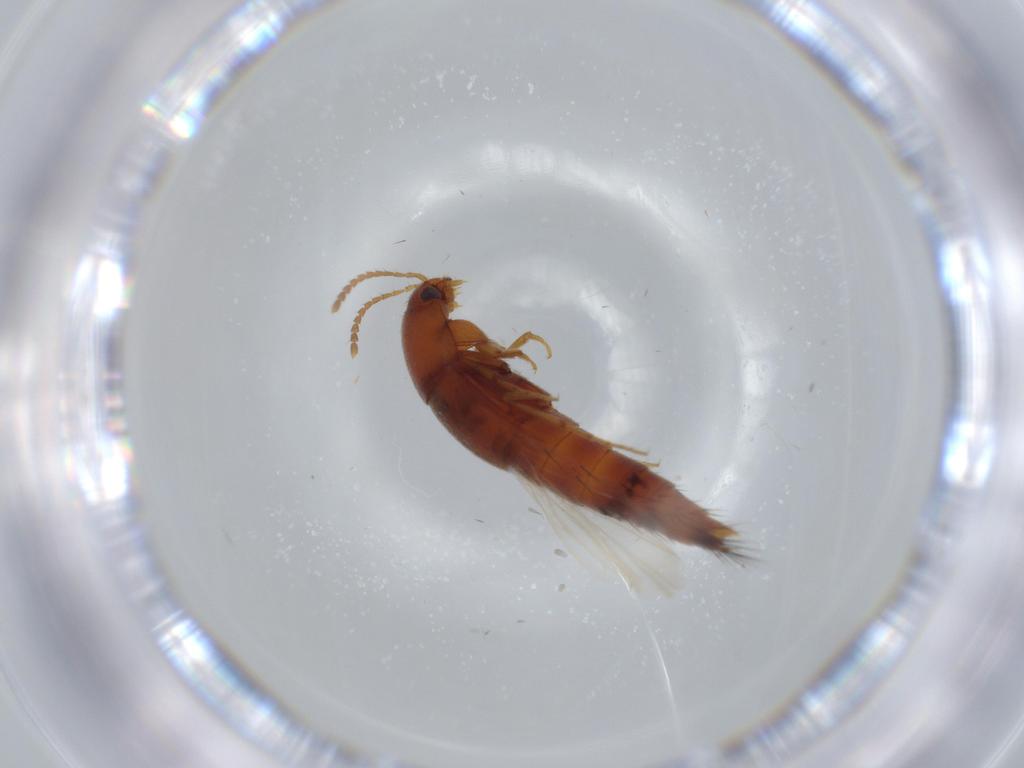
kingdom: Animalia
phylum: Arthropoda
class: Insecta
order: Coleoptera
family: Staphylinidae
